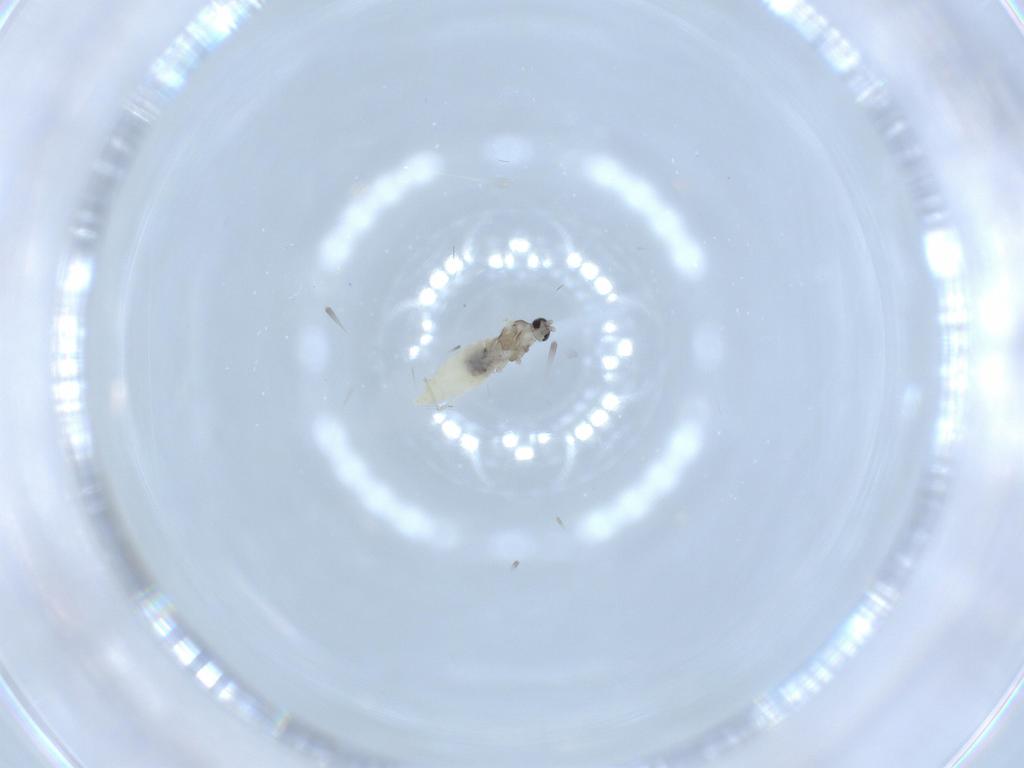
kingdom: Animalia
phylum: Arthropoda
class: Insecta
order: Diptera
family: Cecidomyiidae
